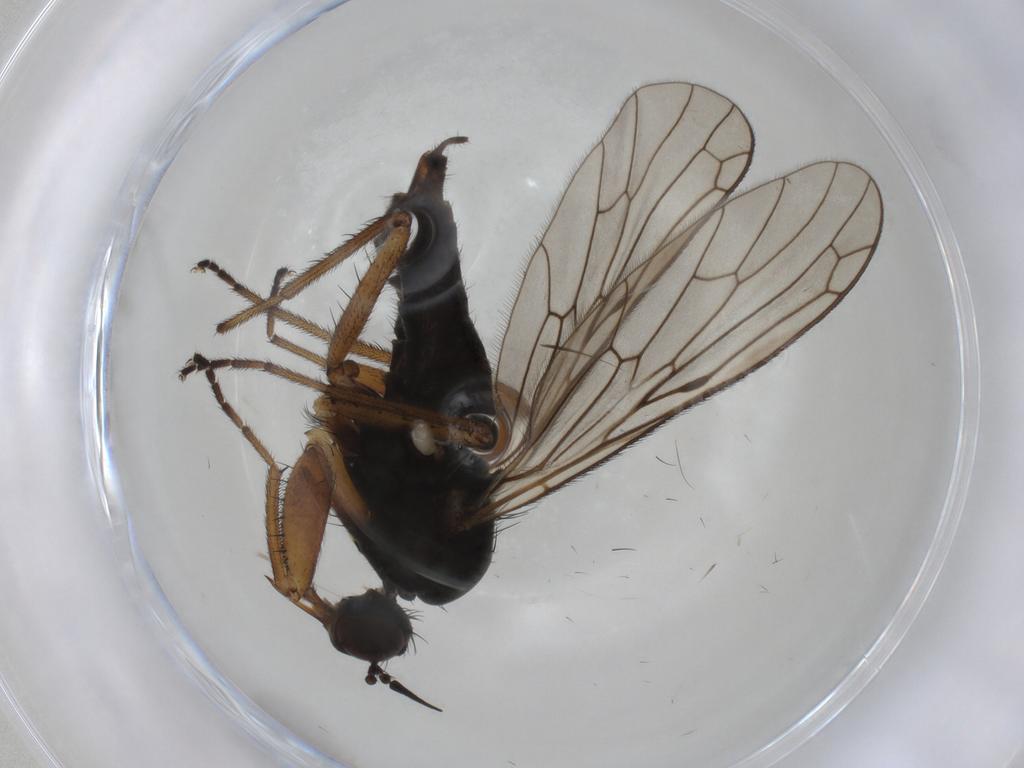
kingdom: Animalia
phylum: Arthropoda
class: Insecta
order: Diptera
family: Empididae
